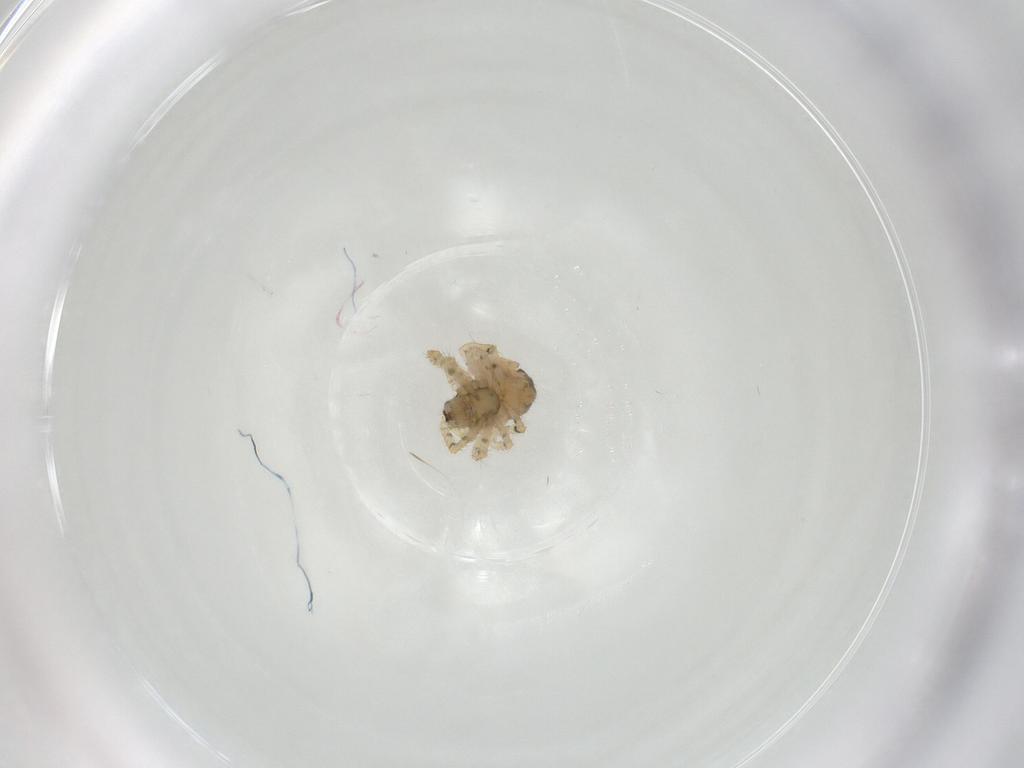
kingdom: Animalia
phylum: Arthropoda
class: Arachnida
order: Araneae
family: Theridiidae
